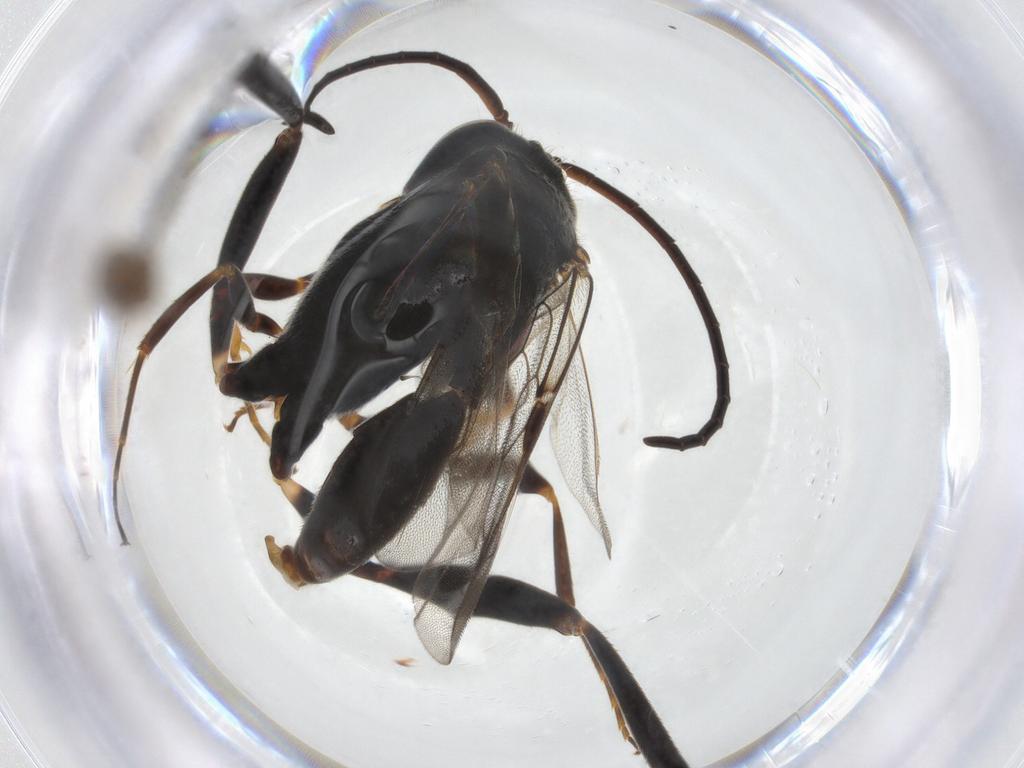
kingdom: Animalia
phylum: Arthropoda
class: Insecta
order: Hymenoptera
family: Evaniidae
